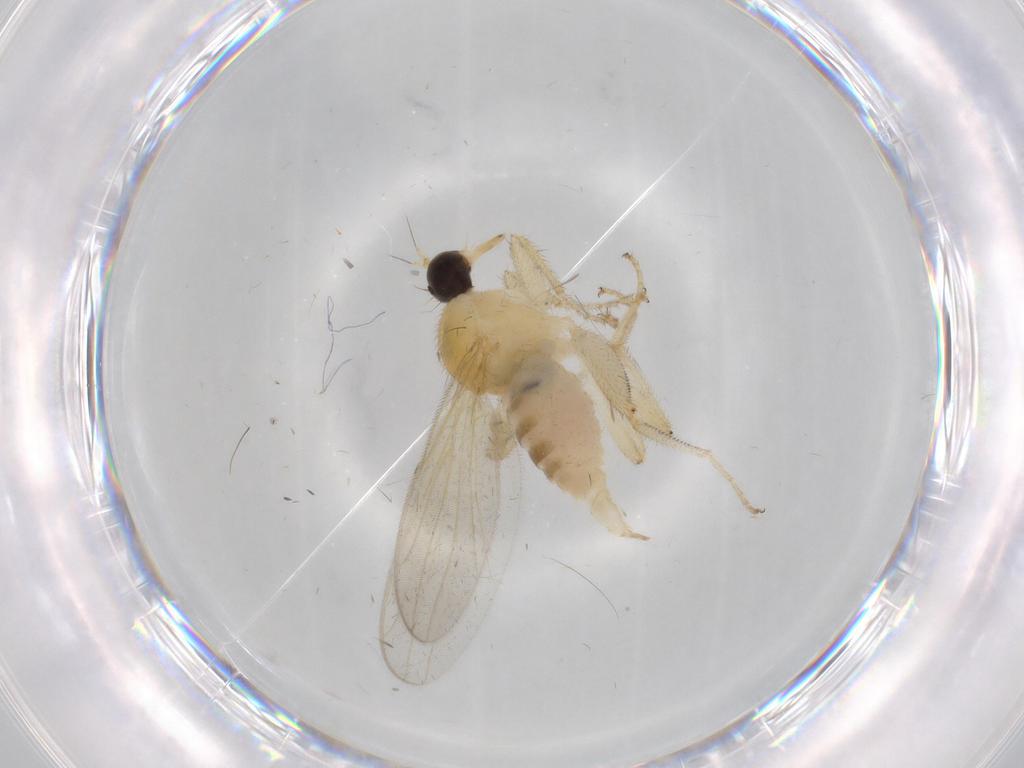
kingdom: Animalia
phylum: Arthropoda
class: Insecta
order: Diptera
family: Hybotidae
